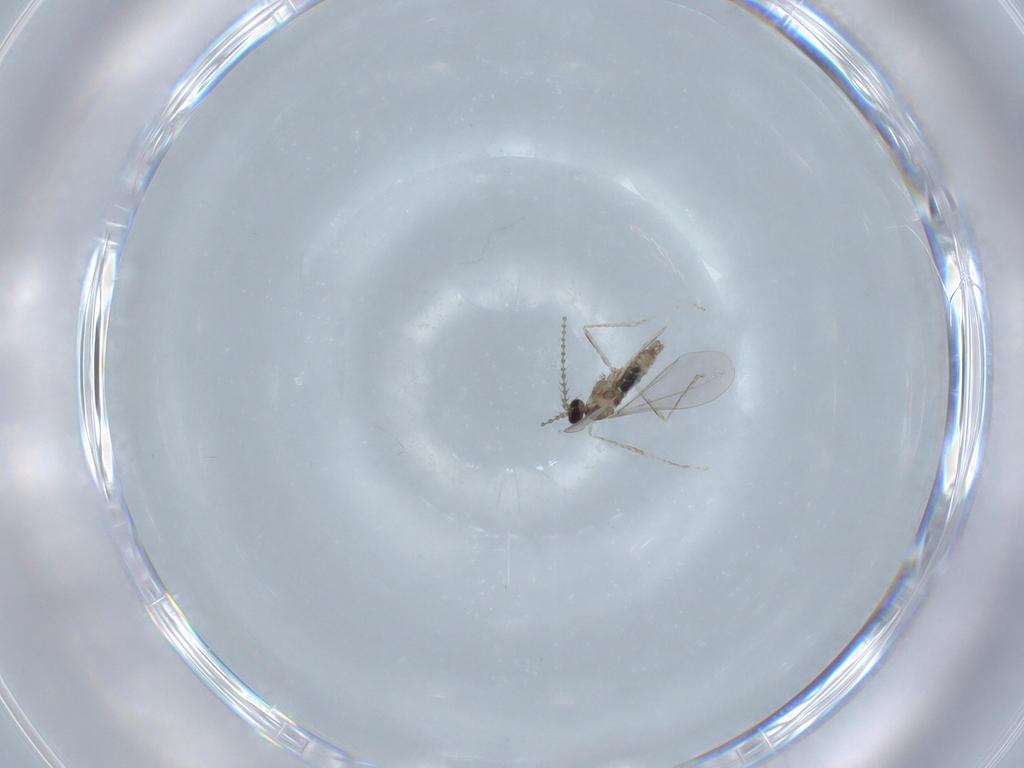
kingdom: Animalia
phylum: Arthropoda
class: Insecta
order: Diptera
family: Cecidomyiidae
